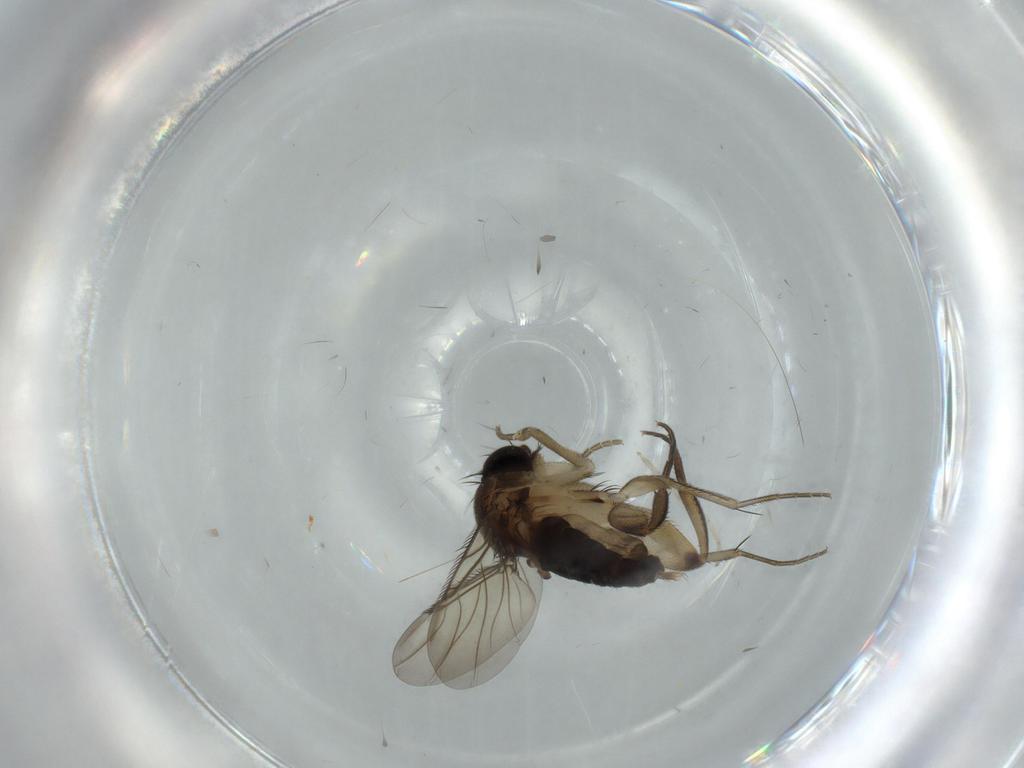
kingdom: Animalia
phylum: Arthropoda
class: Insecta
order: Diptera
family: Phoridae
